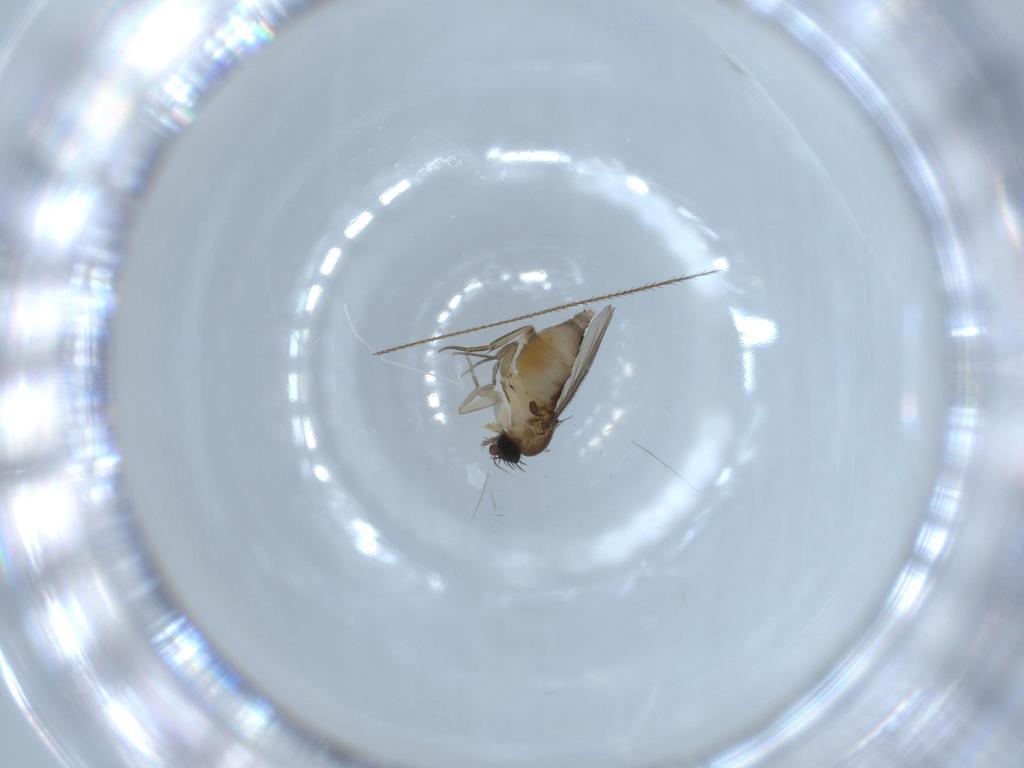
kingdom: Animalia
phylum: Arthropoda
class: Insecta
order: Diptera
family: Phoridae
